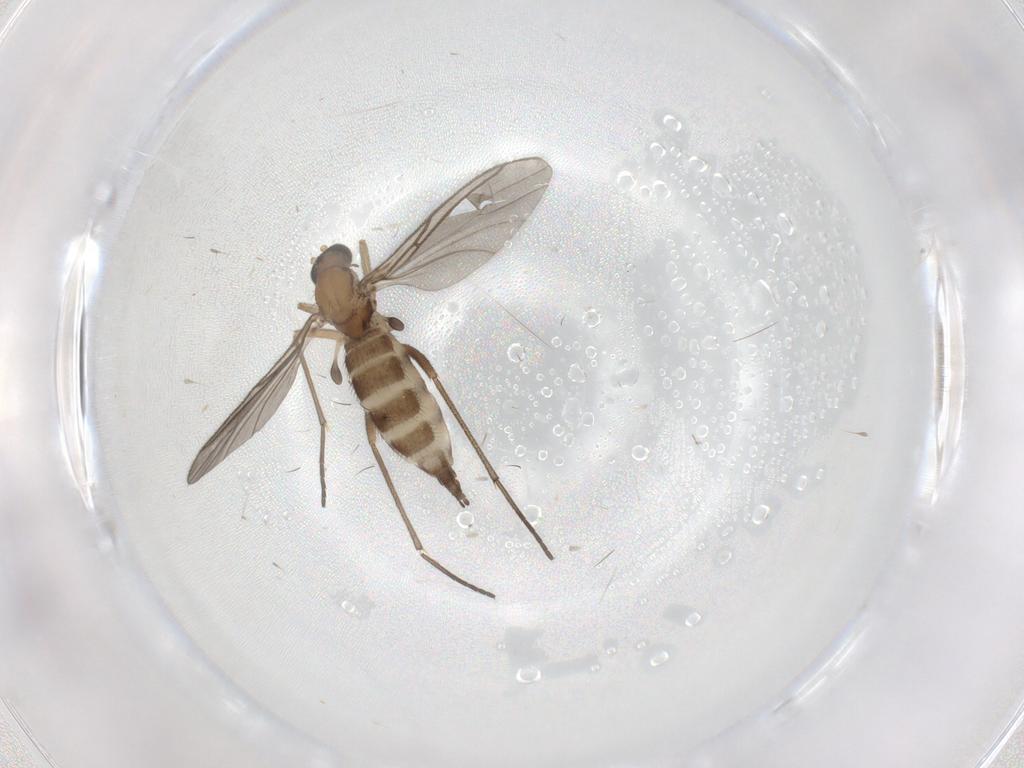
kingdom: Animalia
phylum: Arthropoda
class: Insecta
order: Diptera
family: Sciaridae
